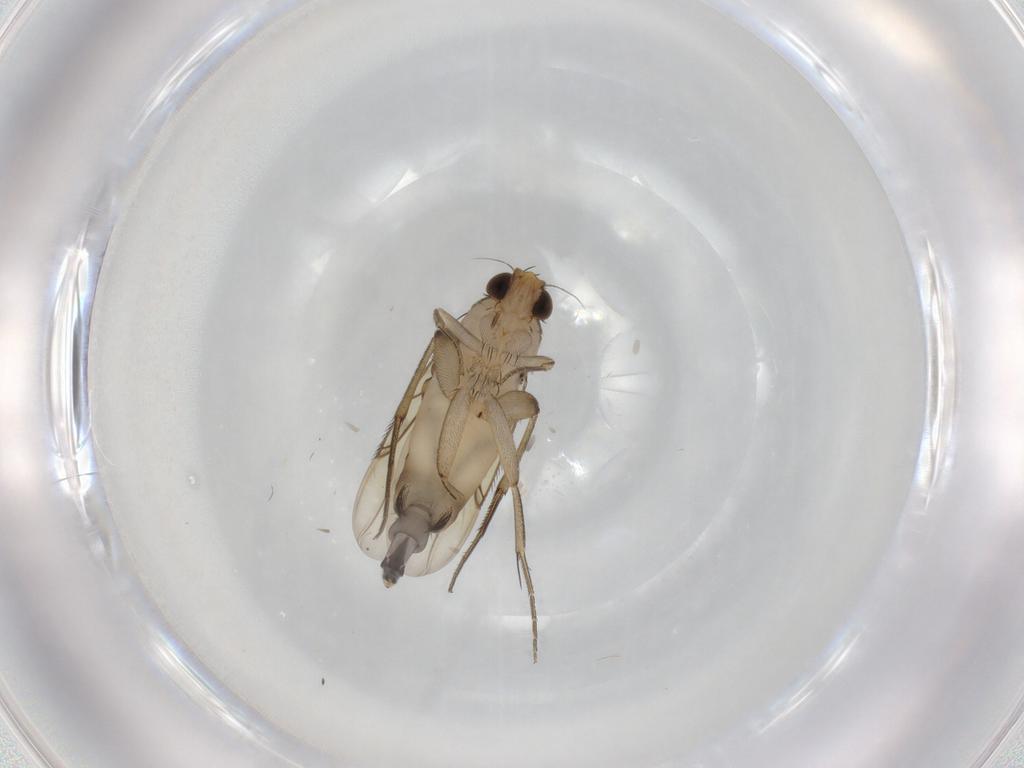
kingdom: Animalia
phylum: Arthropoda
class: Insecta
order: Diptera
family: Phoridae
